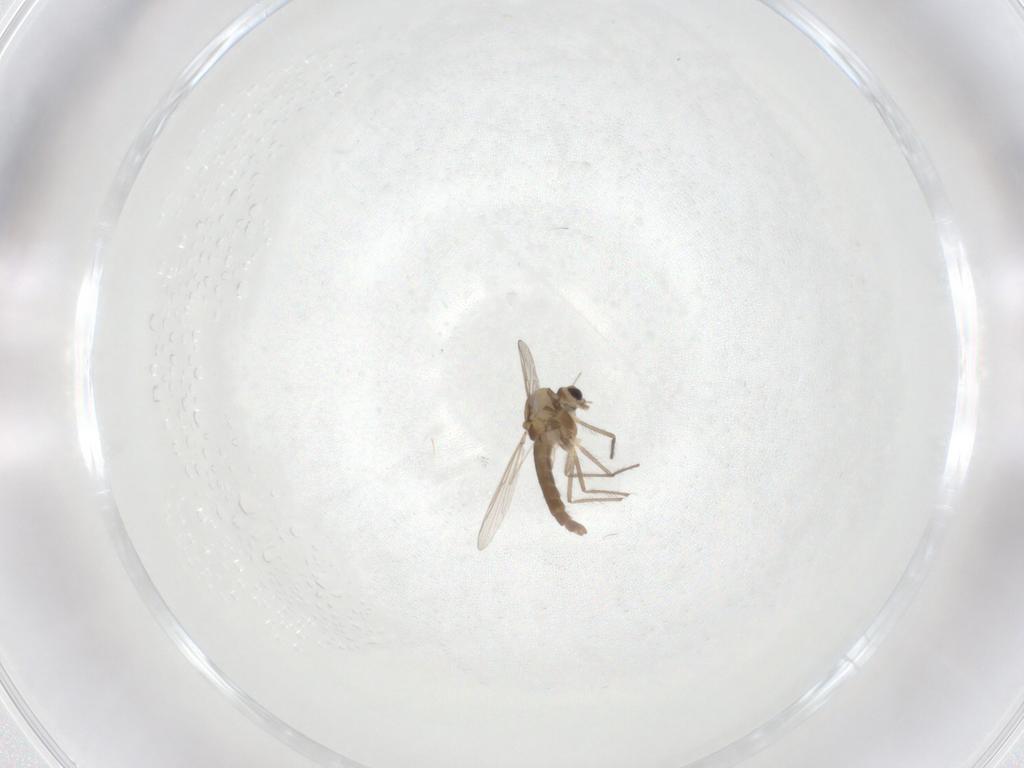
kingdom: Animalia
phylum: Arthropoda
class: Insecta
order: Diptera
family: Chironomidae
